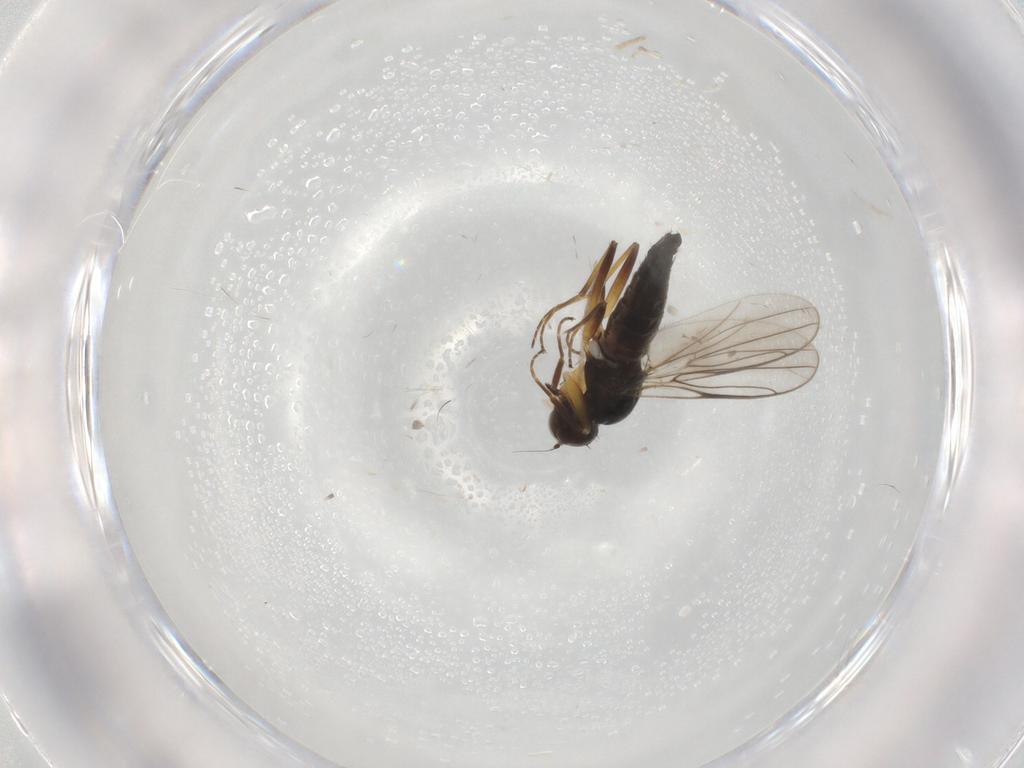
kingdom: Animalia
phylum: Arthropoda
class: Insecta
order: Diptera
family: Hybotidae
